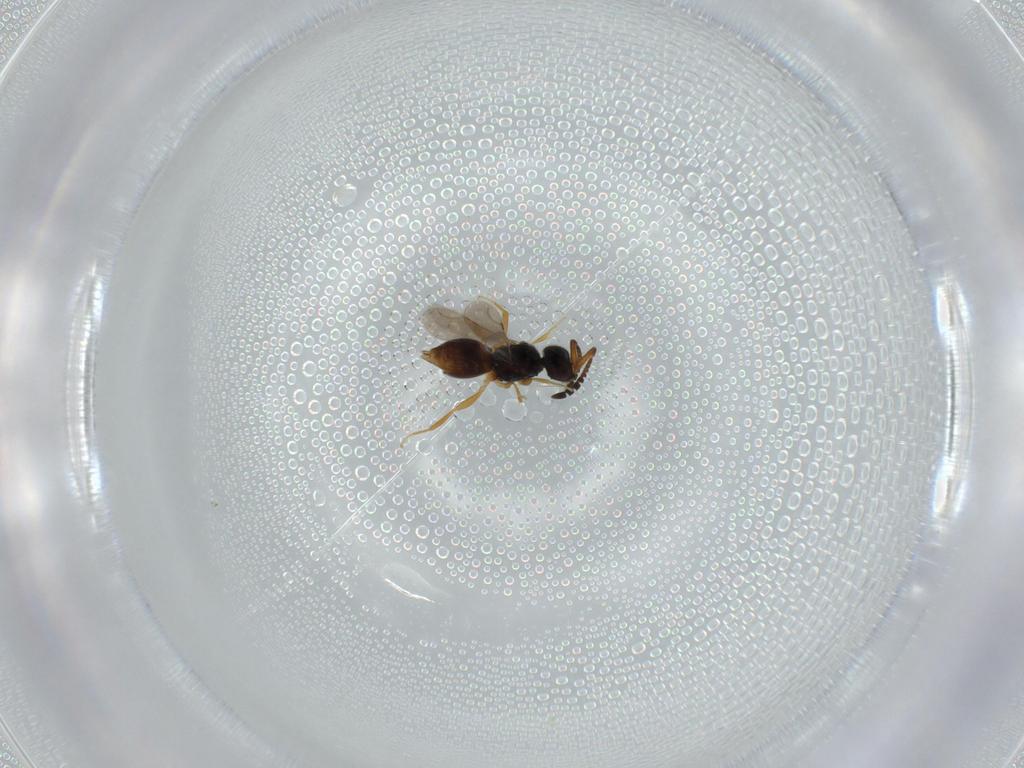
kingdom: Animalia
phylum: Arthropoda
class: Insecta
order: Hymenoptera
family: Ceraphronidae
